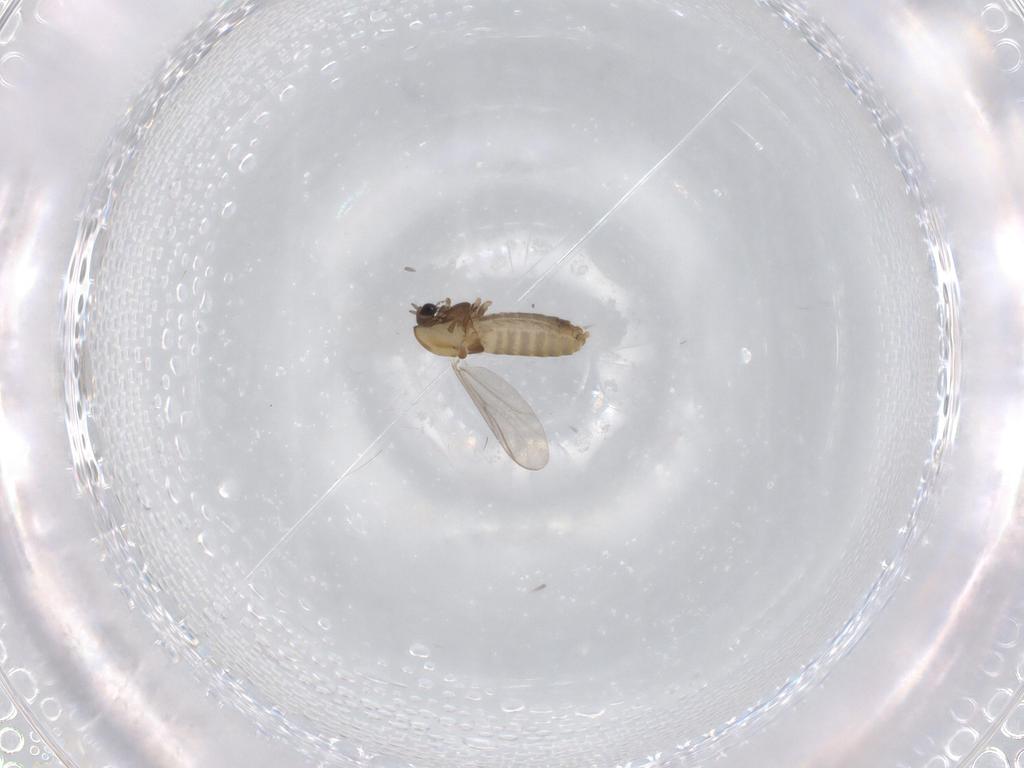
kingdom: Animalia
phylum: Arthropoda
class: Insecta
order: Diptera
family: Chironomidae
